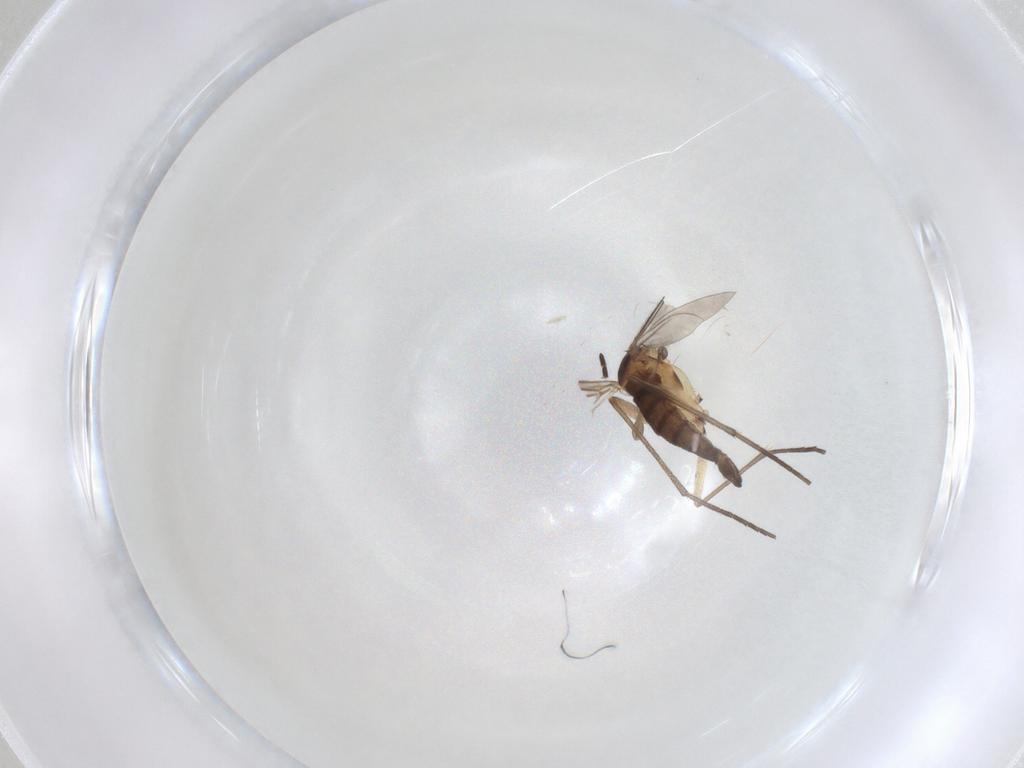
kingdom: Animalia
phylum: Arthropoda
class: Insecta
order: Diptera
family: Sciaridae
